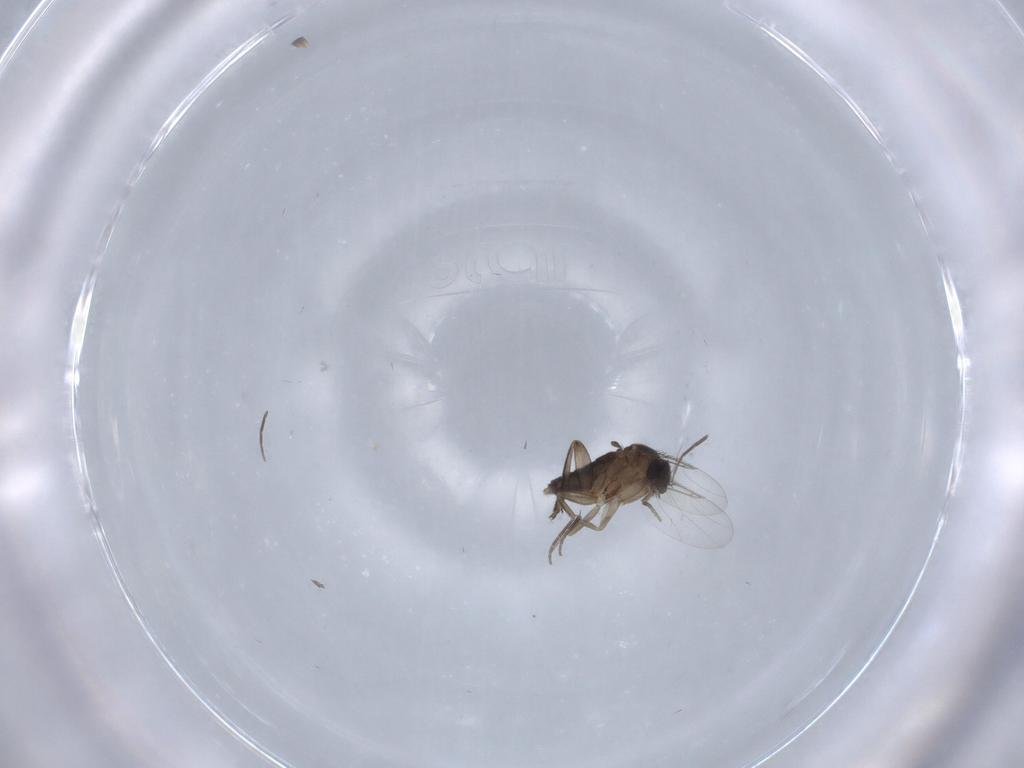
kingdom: Animalia
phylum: Arthropoda
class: Insecta
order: Diptera
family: Phoridae
